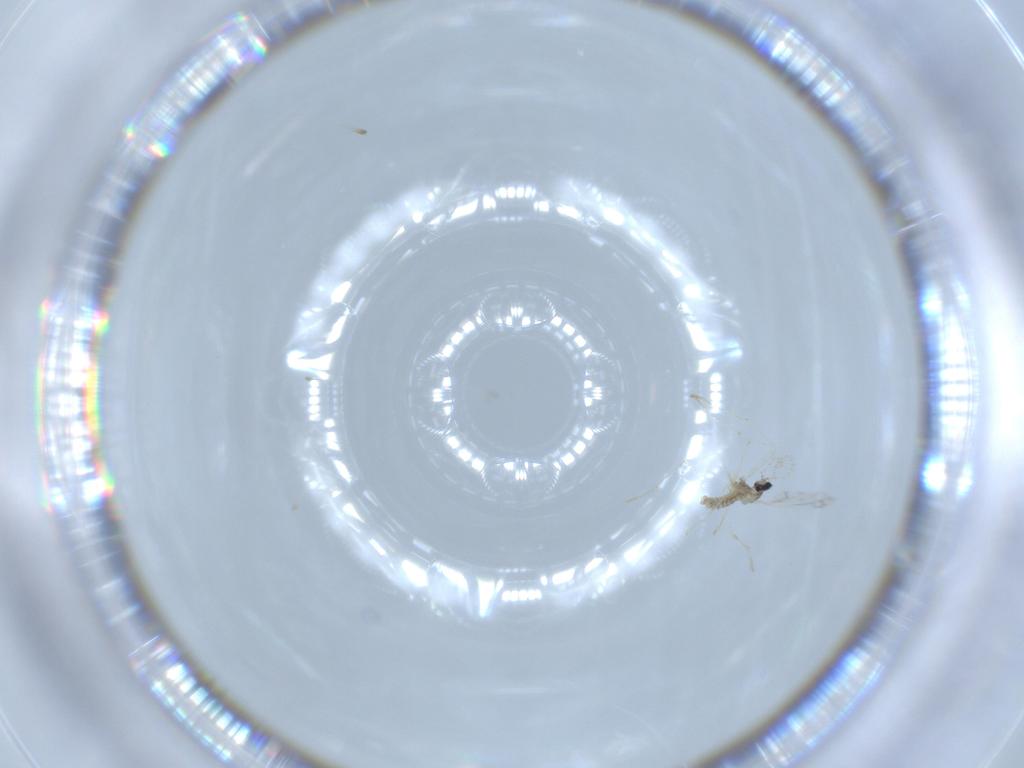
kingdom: Animalia
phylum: Arthropoda
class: Insecta
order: Diptera
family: Cecidomyiidae
